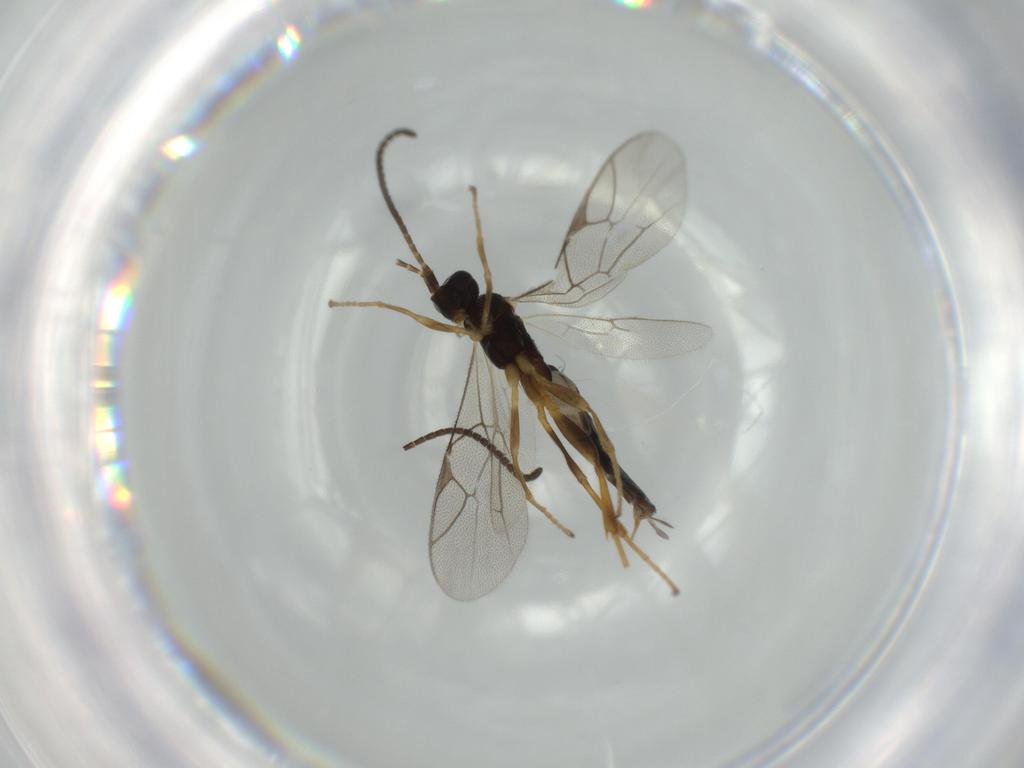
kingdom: Animalia
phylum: Arthropoda
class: Insecta
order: Hymenoptera
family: Ichneumonidae
